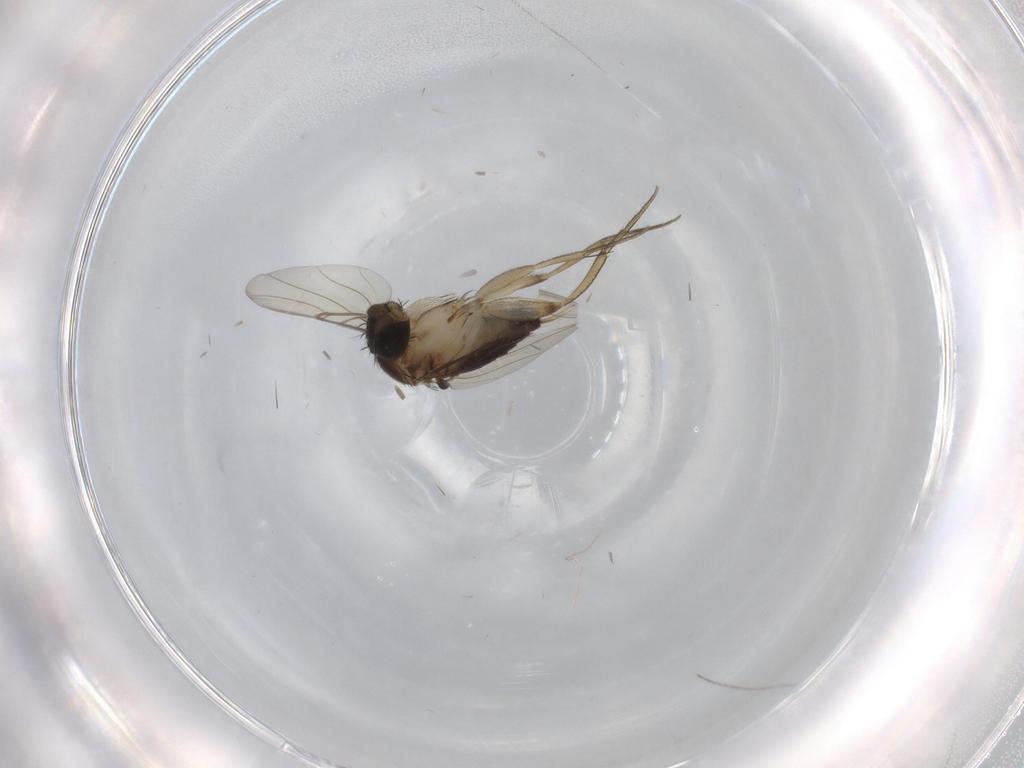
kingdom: Animalia
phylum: Arthropoda
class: Insecta
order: Diptera
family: Phoridae
